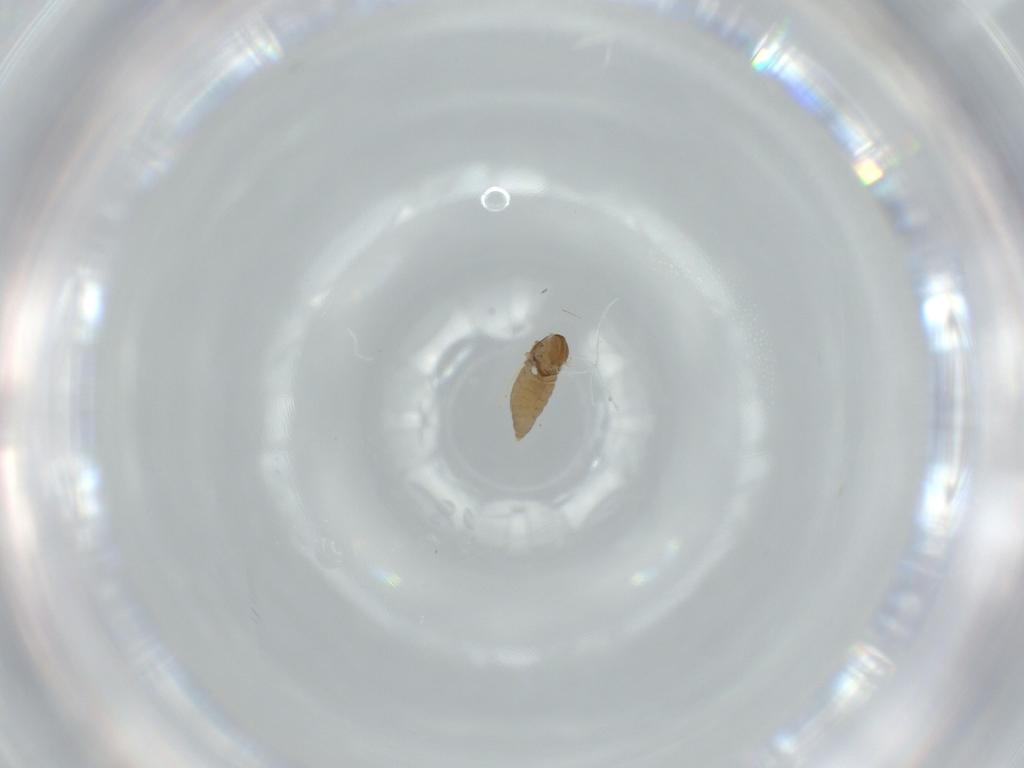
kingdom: Animalia
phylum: Arthropoda
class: Insecta
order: Diptera
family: Cecidomyiidae
